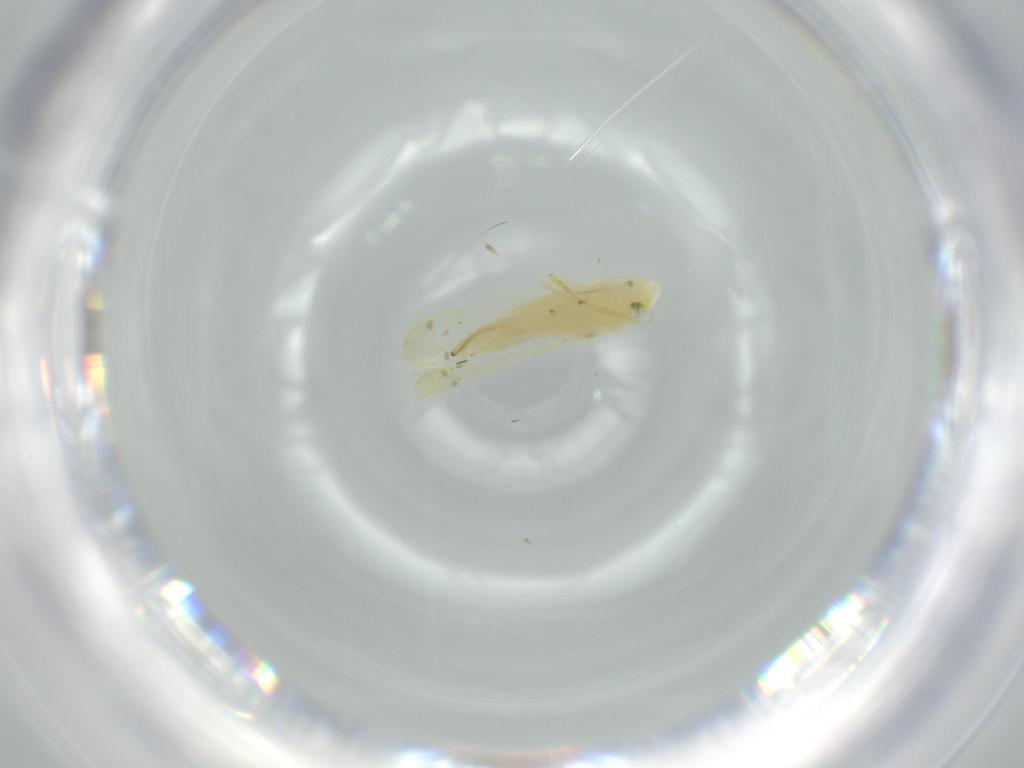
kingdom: Animalia
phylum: Arthropoda
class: Insecta
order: Hemiptera
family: Cicadellidae
